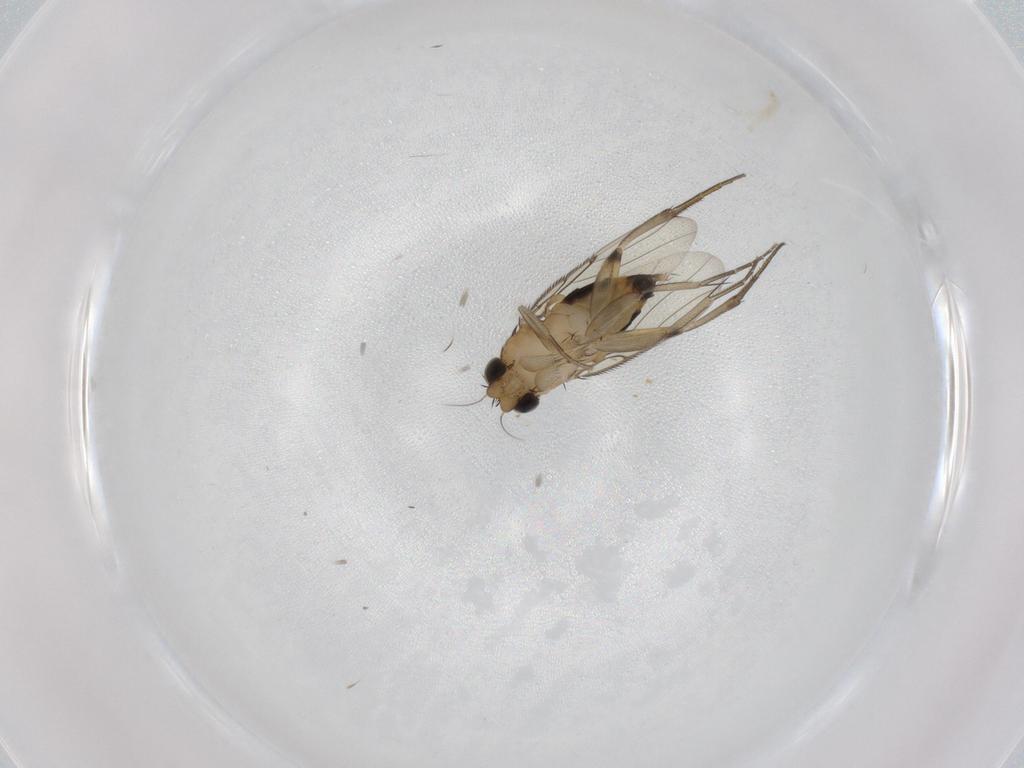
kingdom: Animalia
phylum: Arthropoda
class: Insecta
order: Diptera
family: Phoridae
